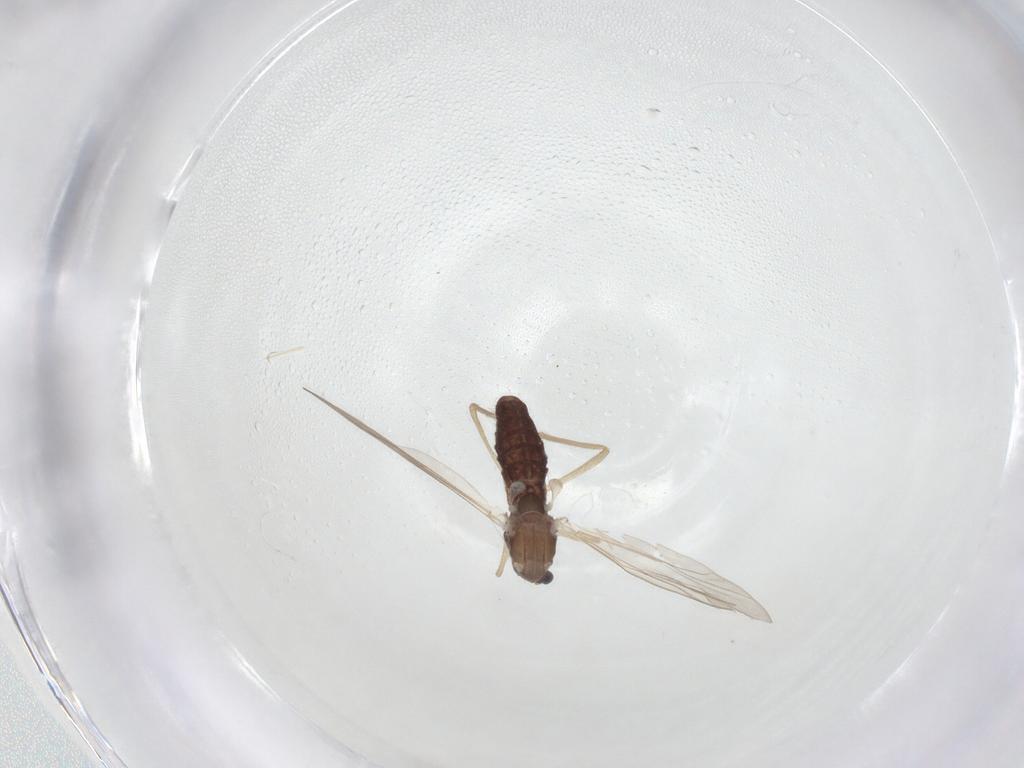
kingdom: Animalia
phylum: Arthropoda
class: Insecta
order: Diptera
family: Chironomidae
